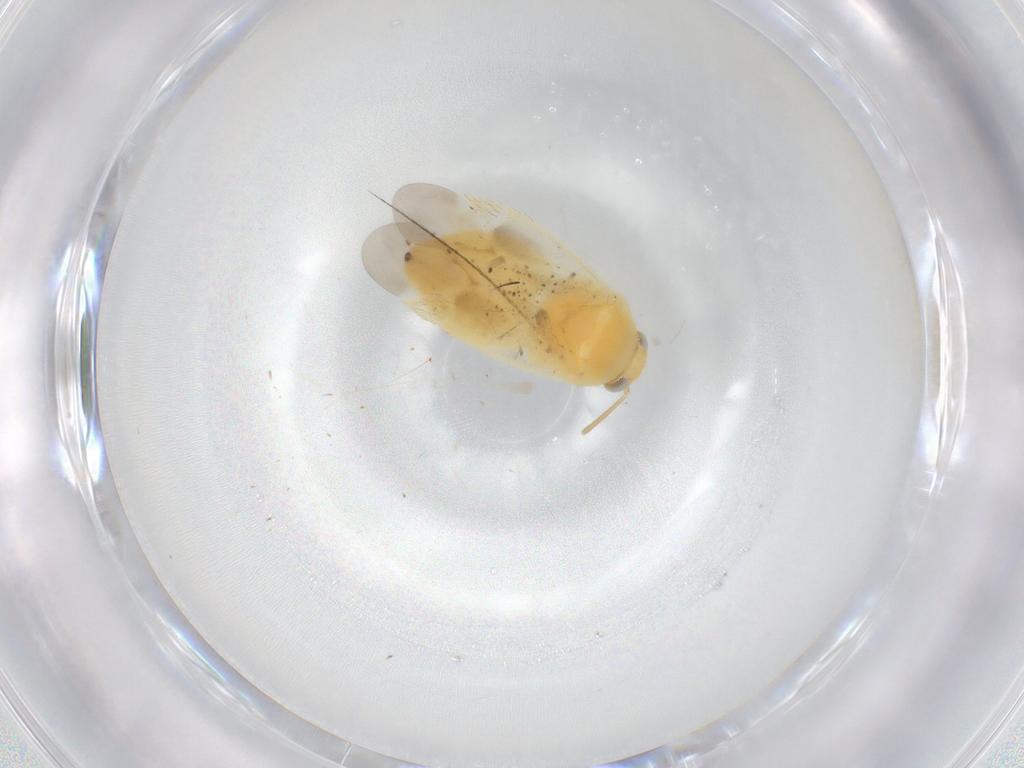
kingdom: Animalia
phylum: Arthropoda
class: Insecta
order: Hemiptera
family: Miridae
